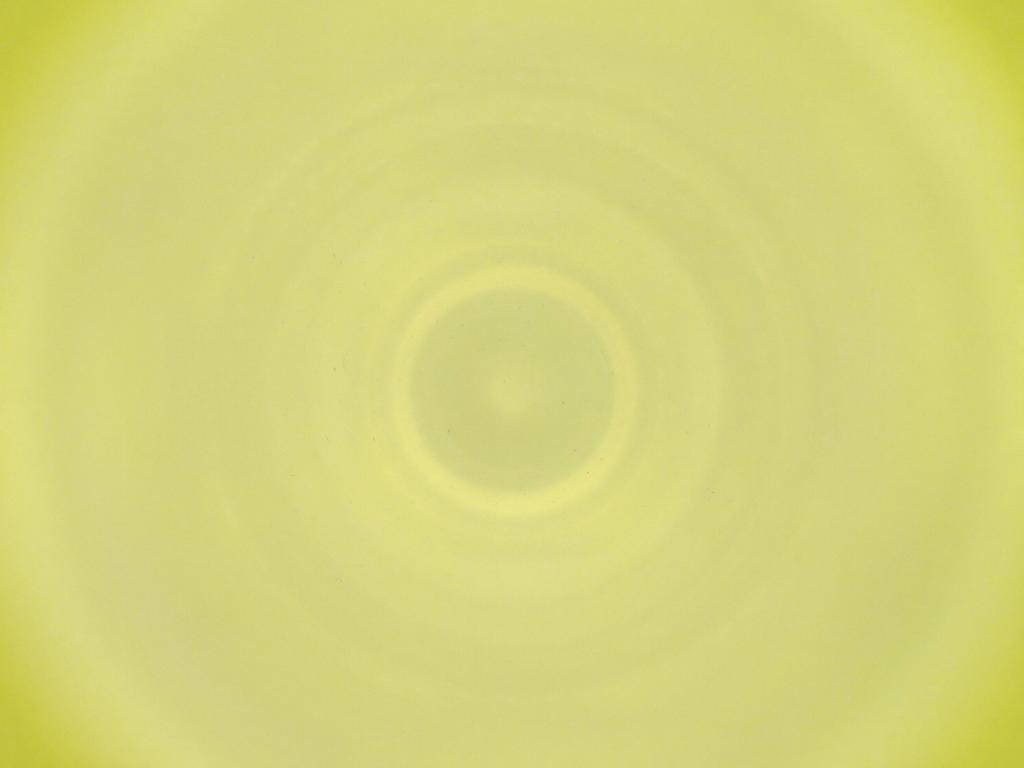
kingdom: Animalia
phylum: Arthropoda
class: Insecta
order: Diptera
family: Cecidomyiidae
